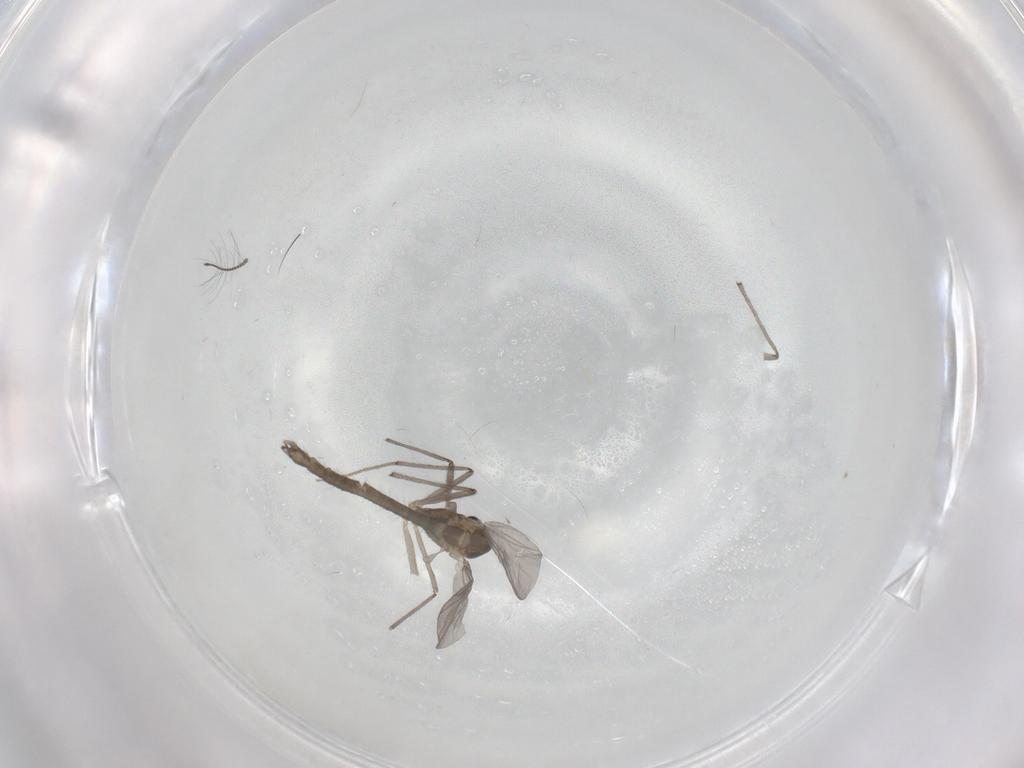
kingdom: Animalia
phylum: Arthropoda
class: Insecta
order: Diptera
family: Chironomidae
